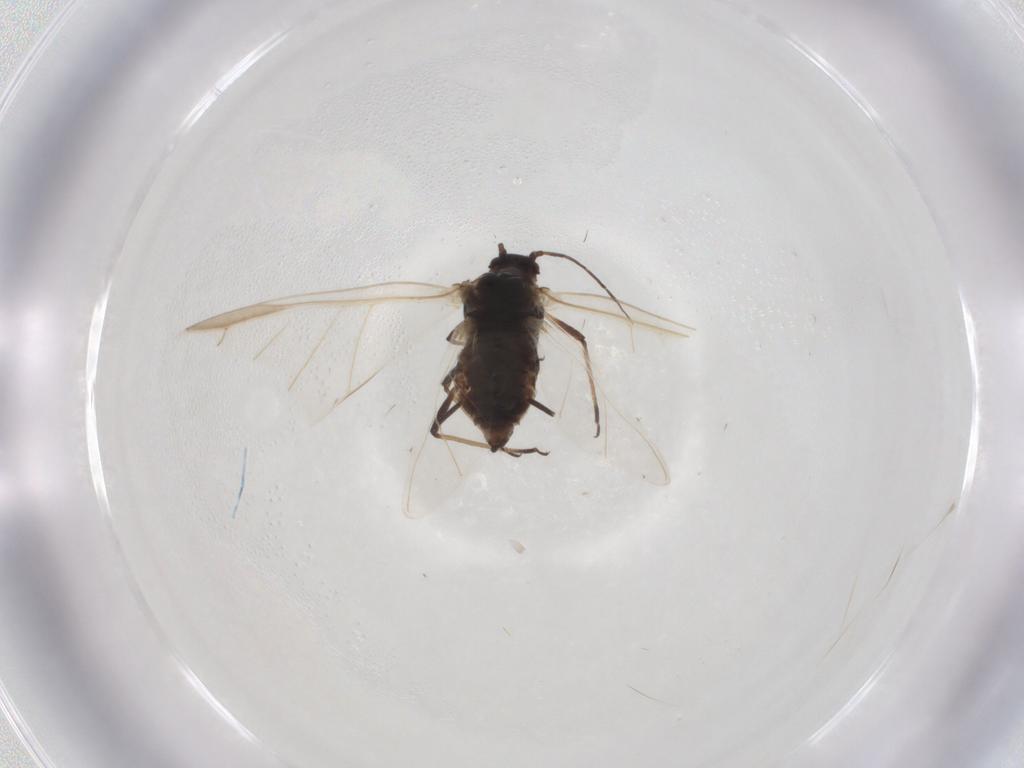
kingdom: Animalia
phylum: Arthropoda
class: Insecta
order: Hemiptera
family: Aphididae
